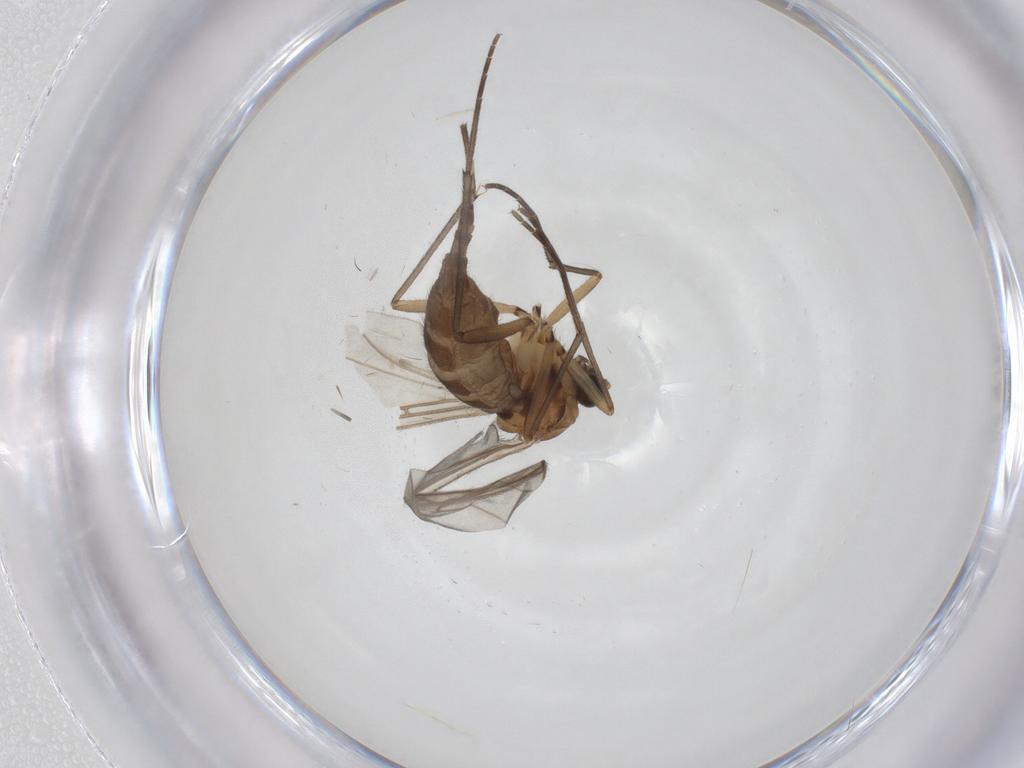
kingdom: Animalia
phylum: Arthropoda
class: Insecta
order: Diptera
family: Sciaridae
